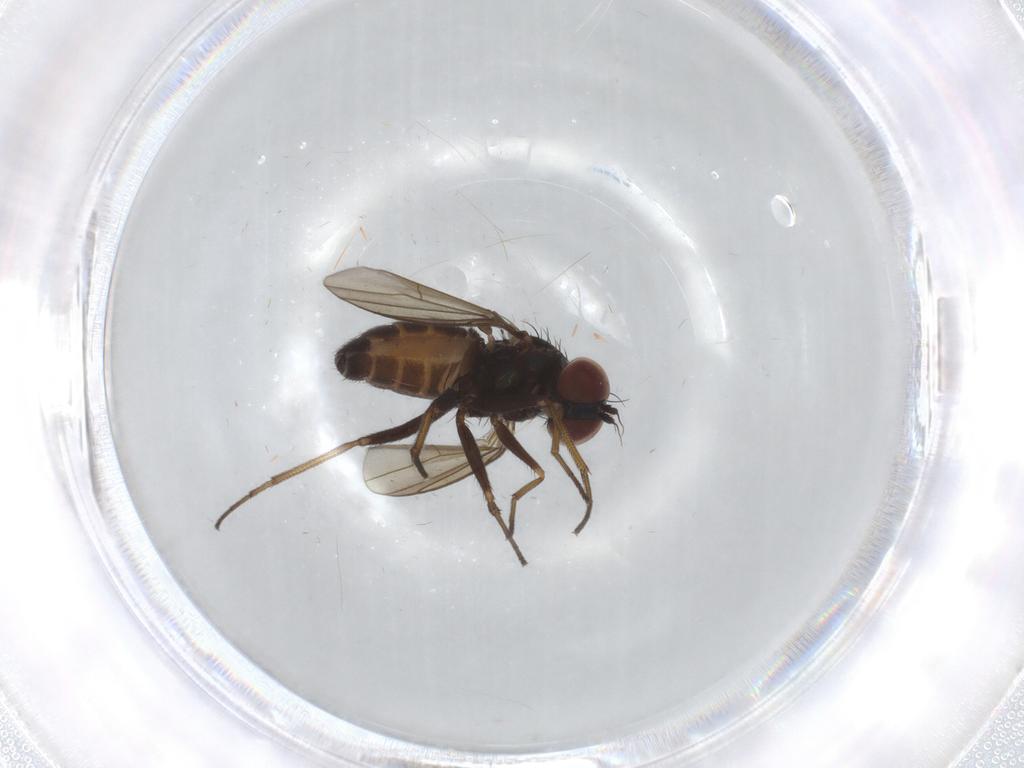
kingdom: Animalia
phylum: Arthropoda
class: Insecta
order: Diptera
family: Dolichopodidae
